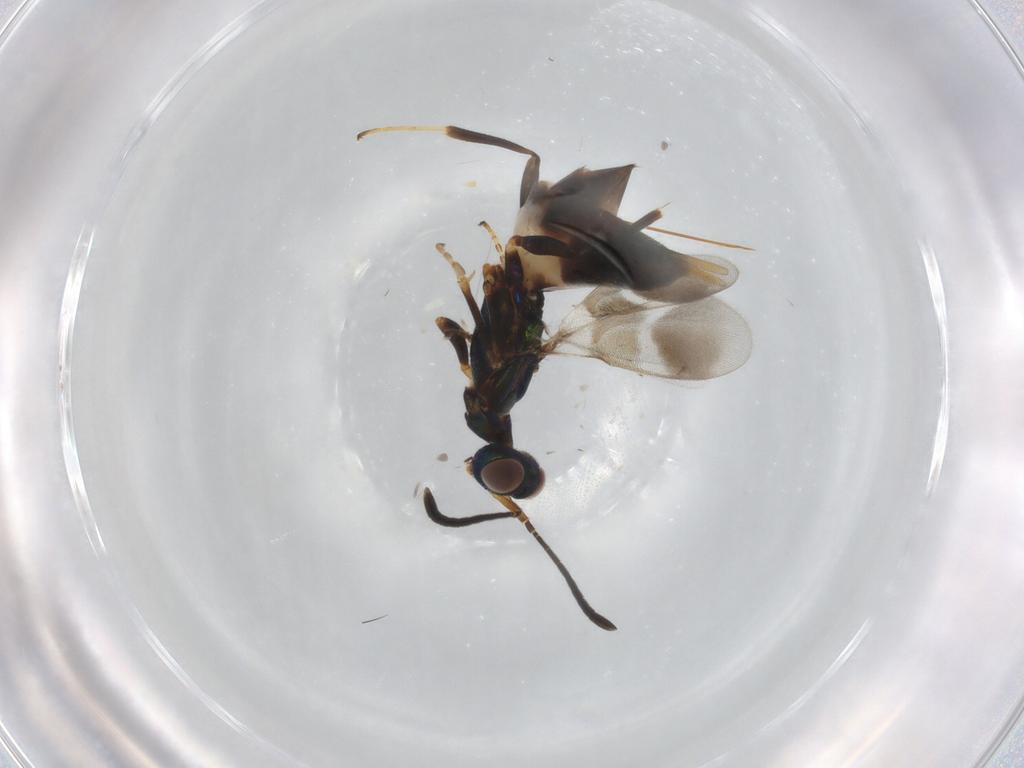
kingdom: Animalia
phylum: Arthropoda
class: Insecta
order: Hymenoptera
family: Eupelmidae
